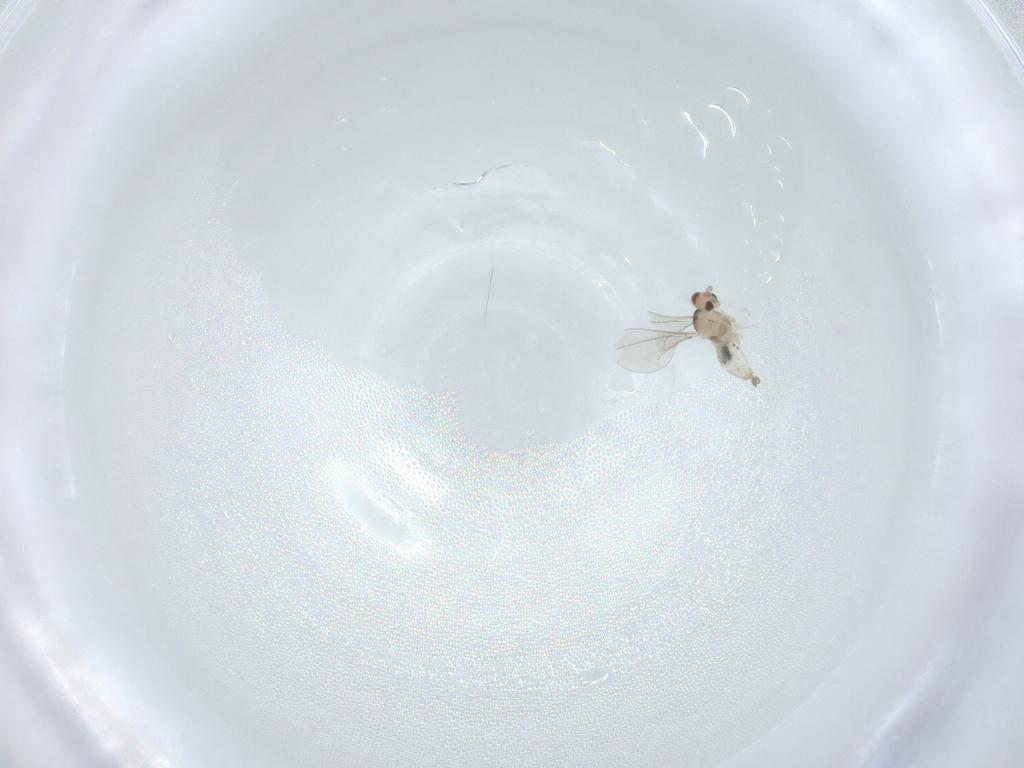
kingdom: Animalia
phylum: Arthropoda
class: Insecta
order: Diptera
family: Cecidomyiidae
